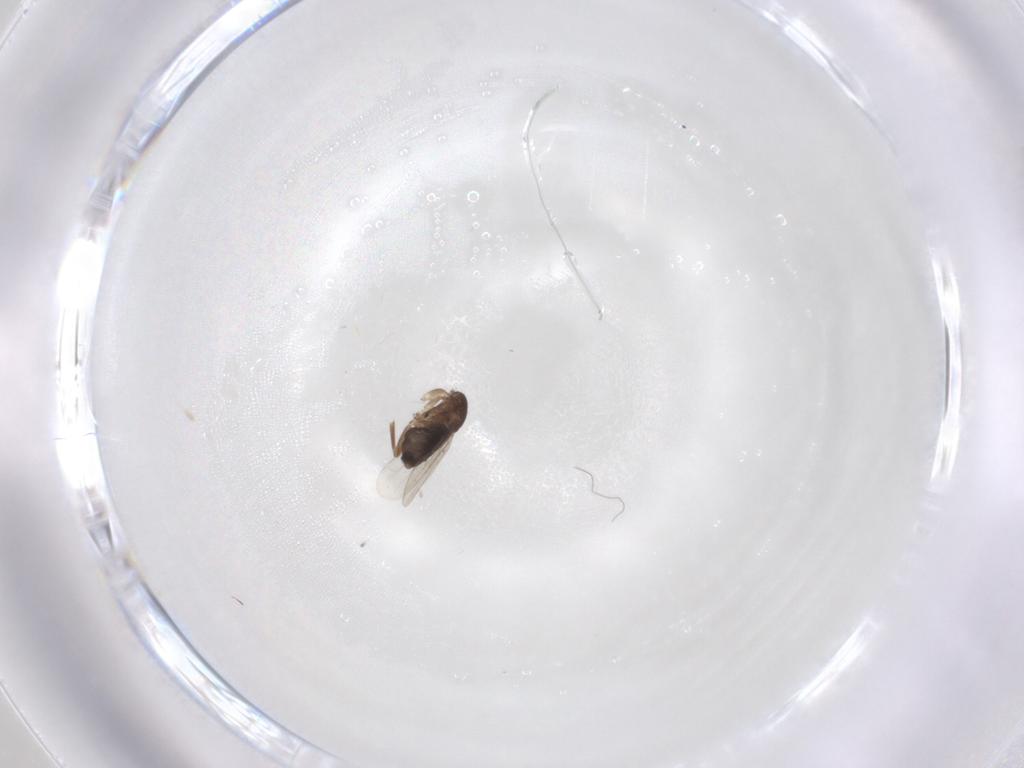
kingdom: Animalia
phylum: Arthropoda
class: Insecta
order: Diptera
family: Phoridae
